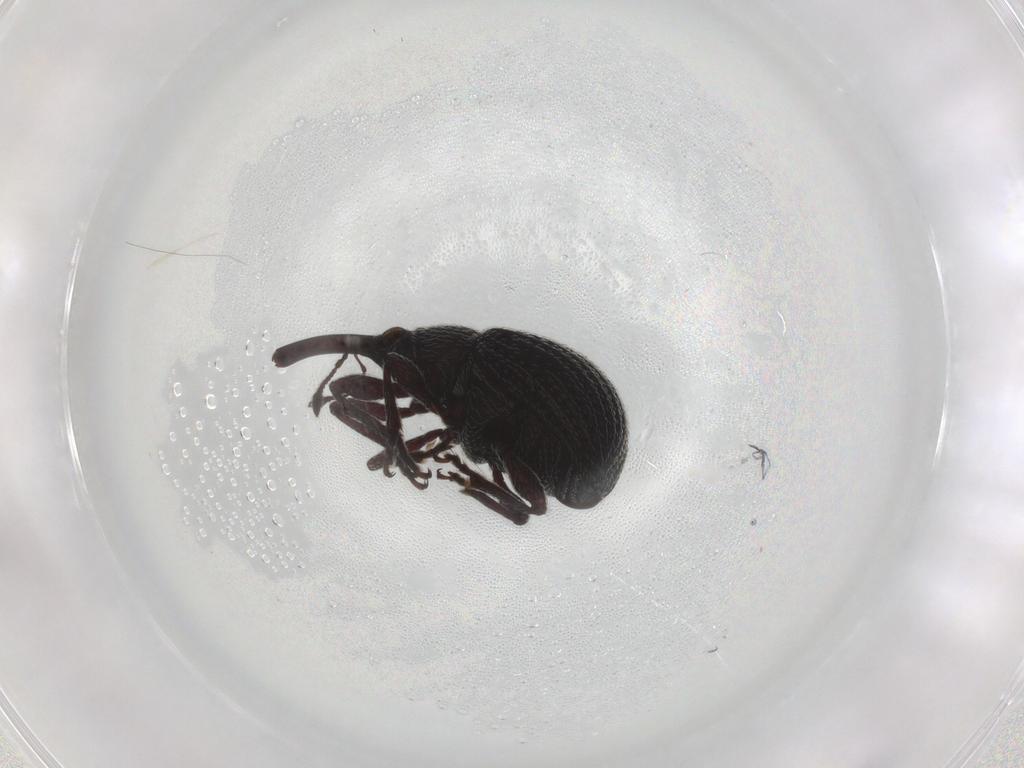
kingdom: Animalia
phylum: Arthropoda
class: Insecta
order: Coleoptera
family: Brentidae
